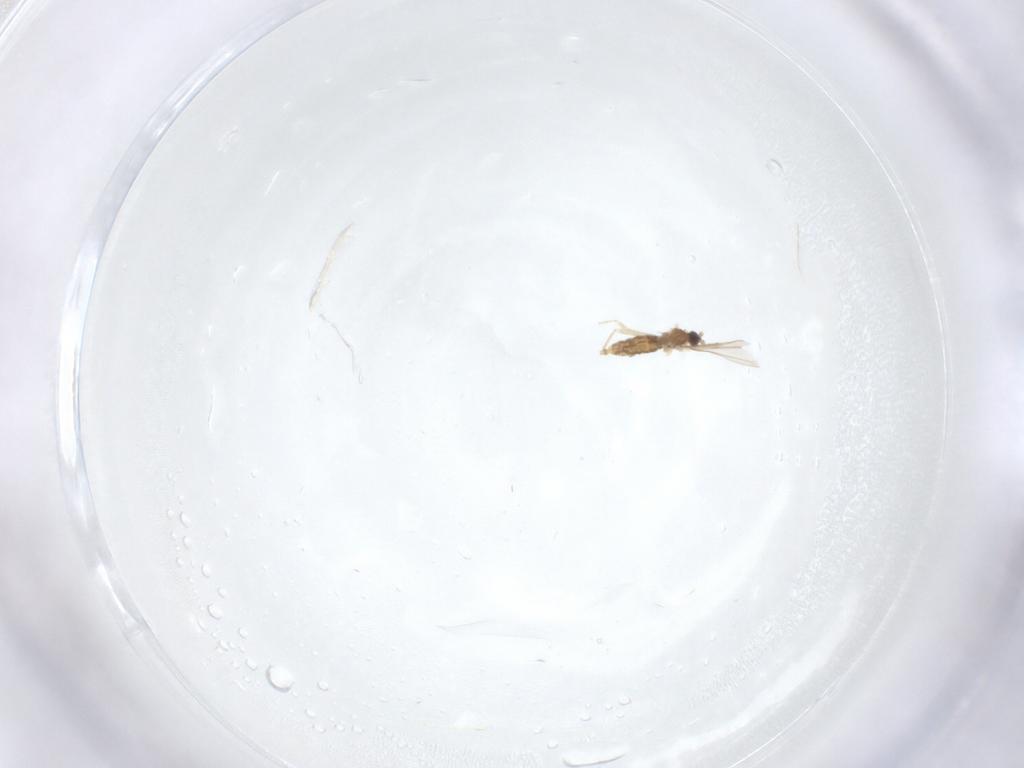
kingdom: Animalia
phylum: Arthropoda
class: Insecta
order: Diptera
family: Cecidomyiidae
